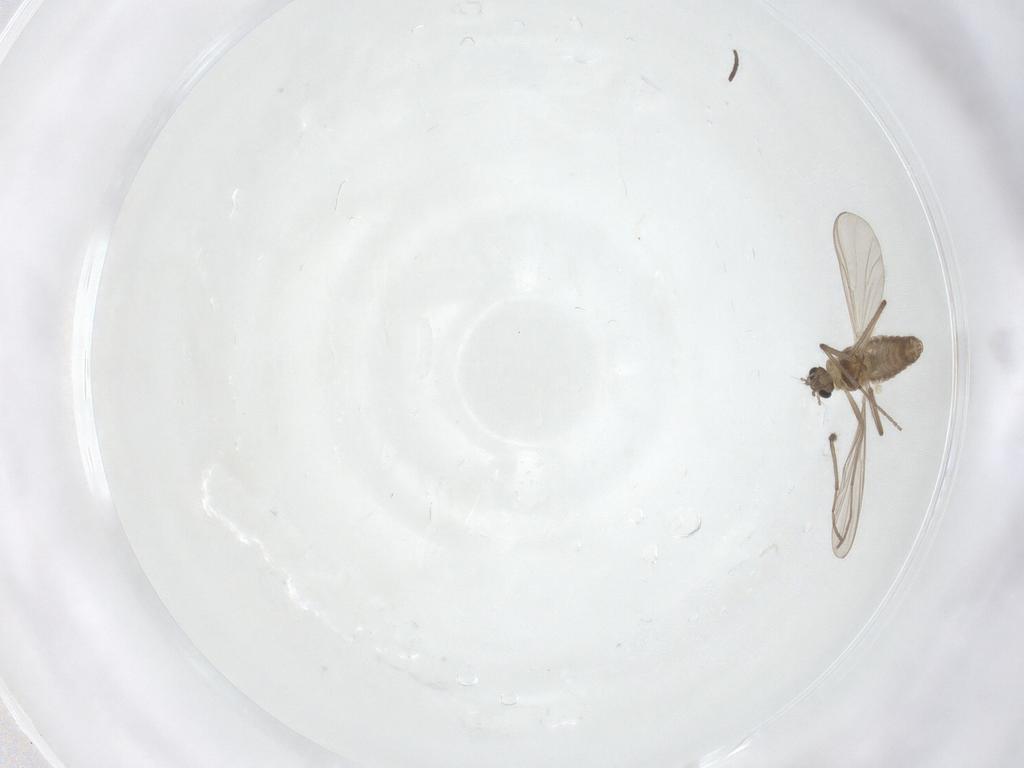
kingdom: Animalia
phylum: Arthropoda
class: Insecta
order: Diptera
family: Chironomidae
